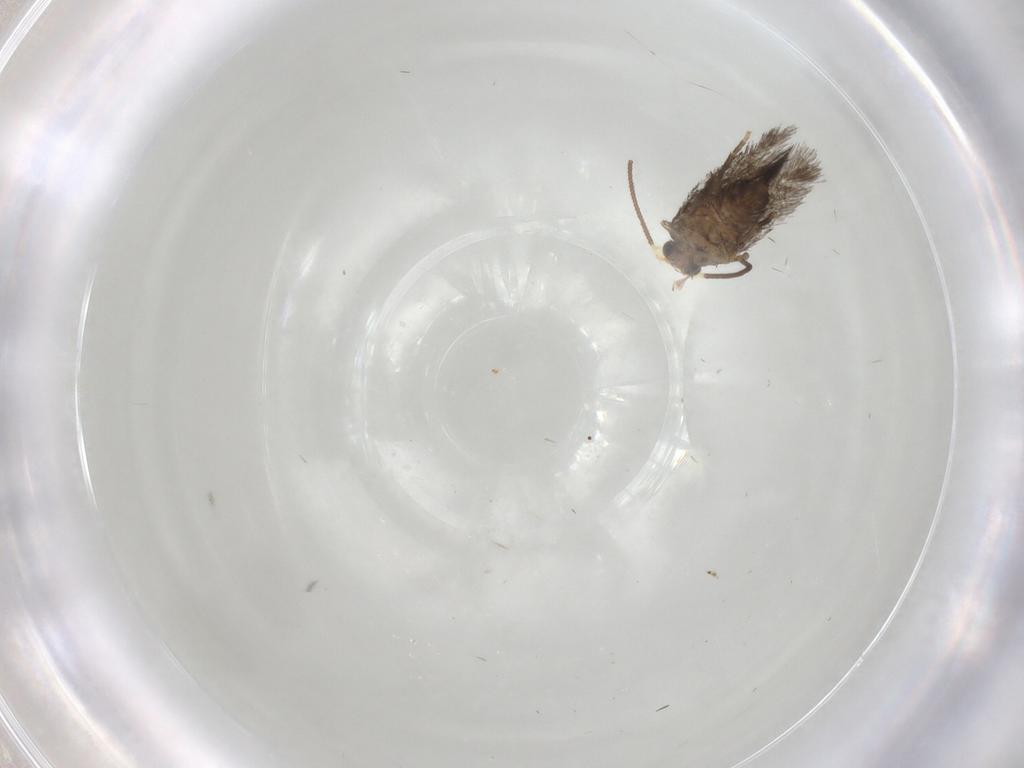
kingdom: Animalia
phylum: Arthropoda
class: Insecta
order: Lepidoptera
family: Nepticulidae
